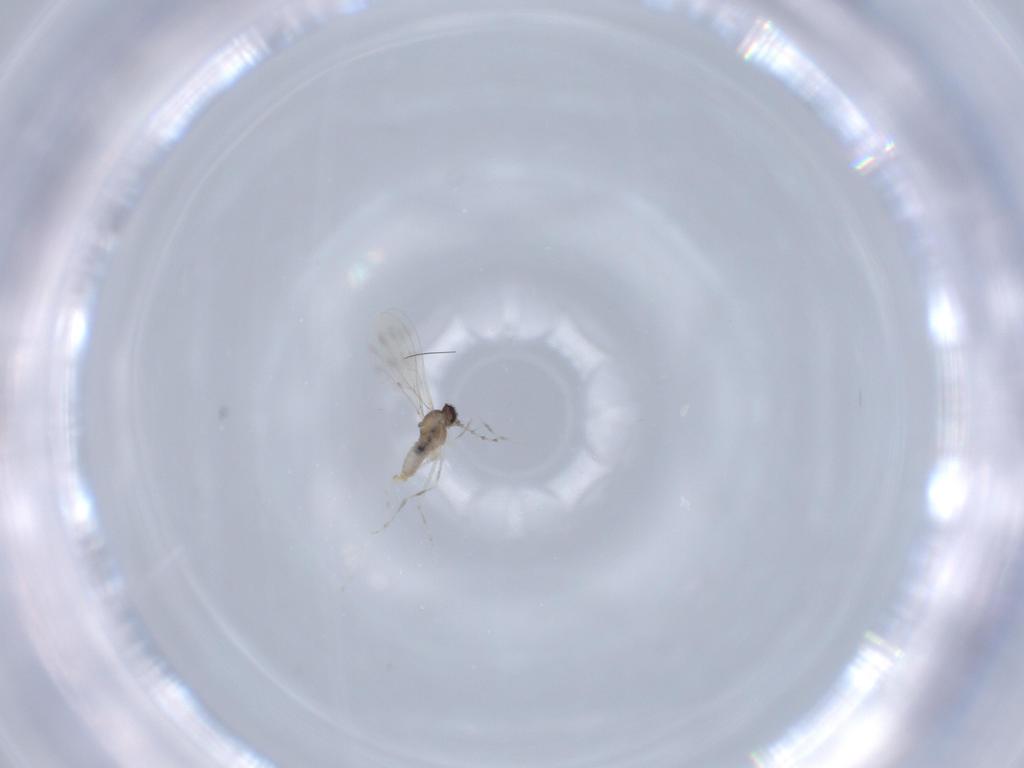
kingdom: Animalia
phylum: Arthropoda
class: Insecta
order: Diptera
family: Cecidomyiidae
